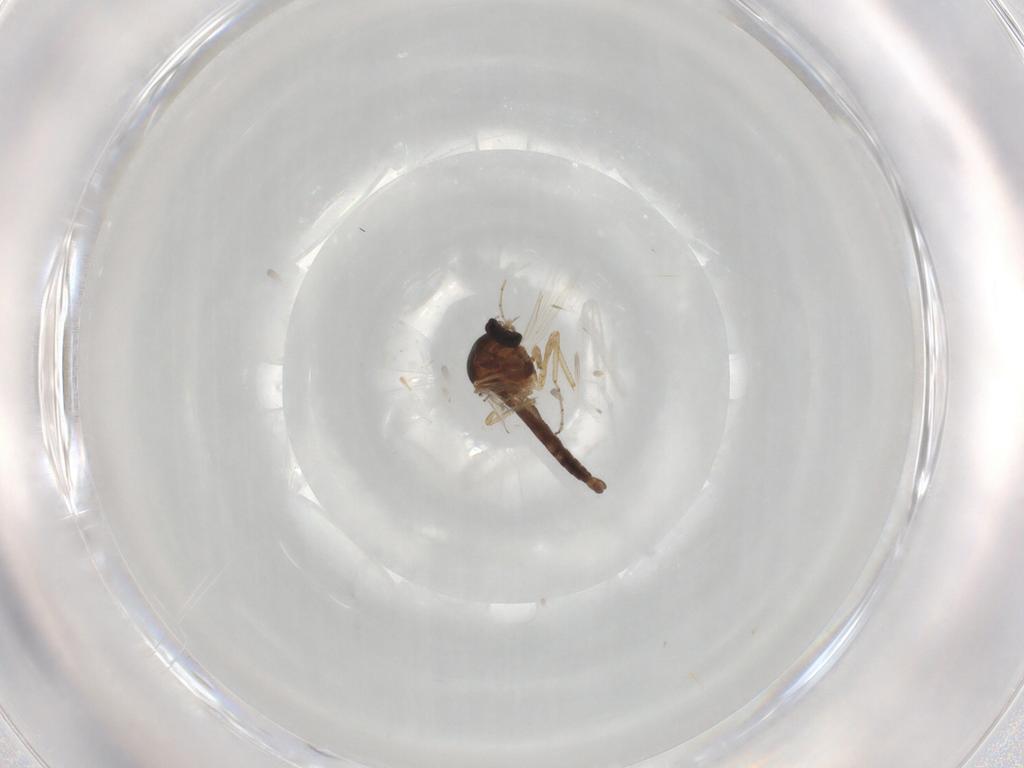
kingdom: Animalia
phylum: Arthropoda
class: Insecta
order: Diptera
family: Ceratopogonidae
